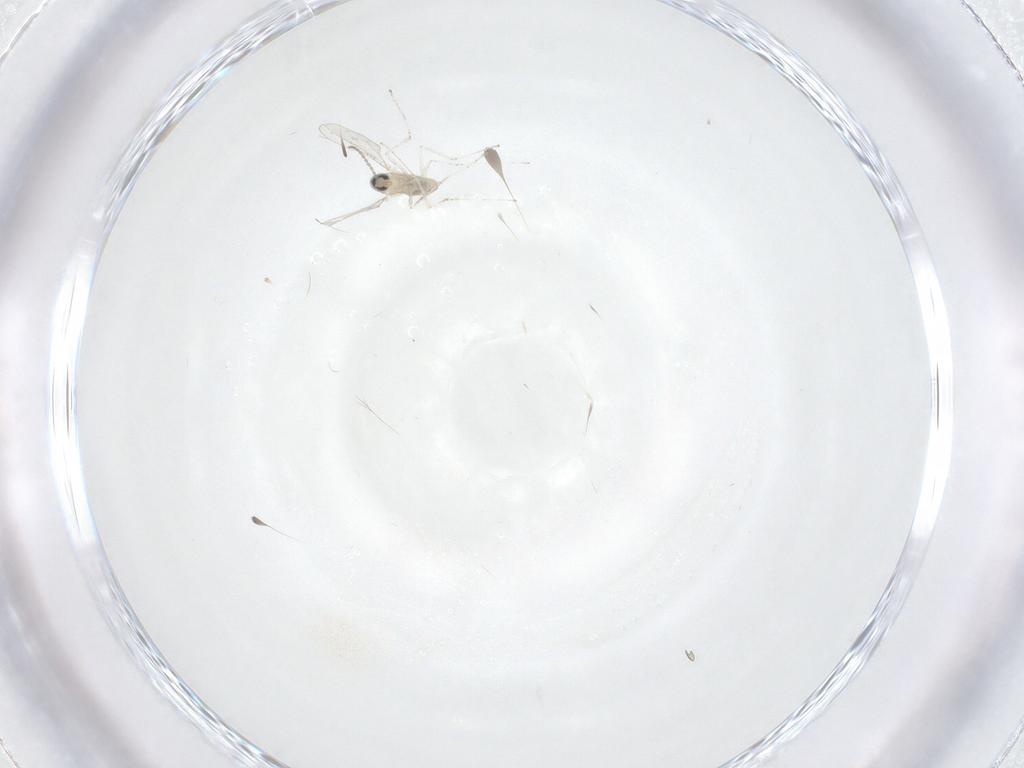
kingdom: Animalia
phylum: Arthropoda
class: Insecta
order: Diptera
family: Cecidomyiidae
